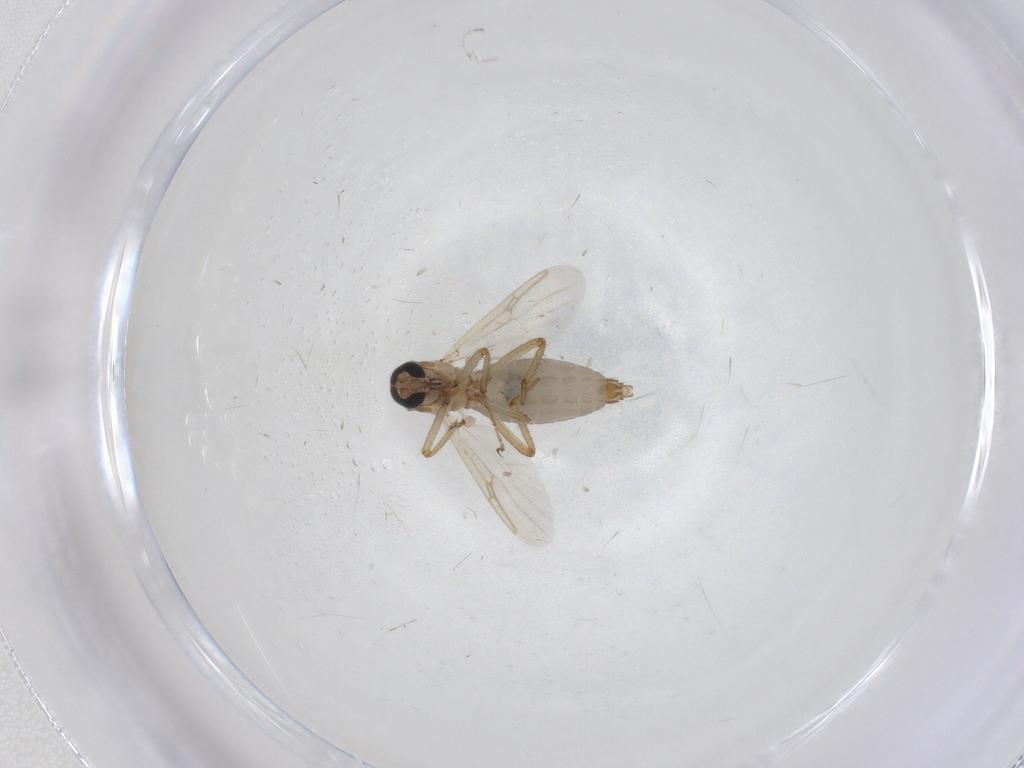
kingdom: Animalia
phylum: Arthropoda
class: Insecta
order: Diptera
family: Ceratopogonidae
